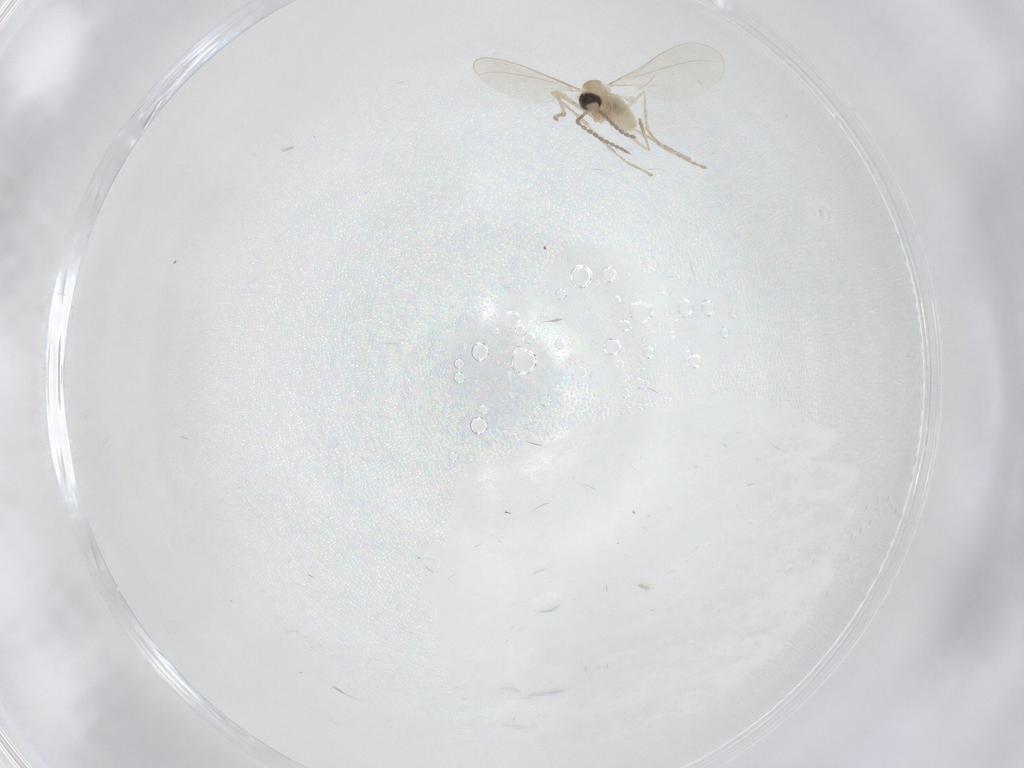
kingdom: Animalia
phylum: Arthropoda
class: Insecta
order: Diptera
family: Cecidomyiidae
